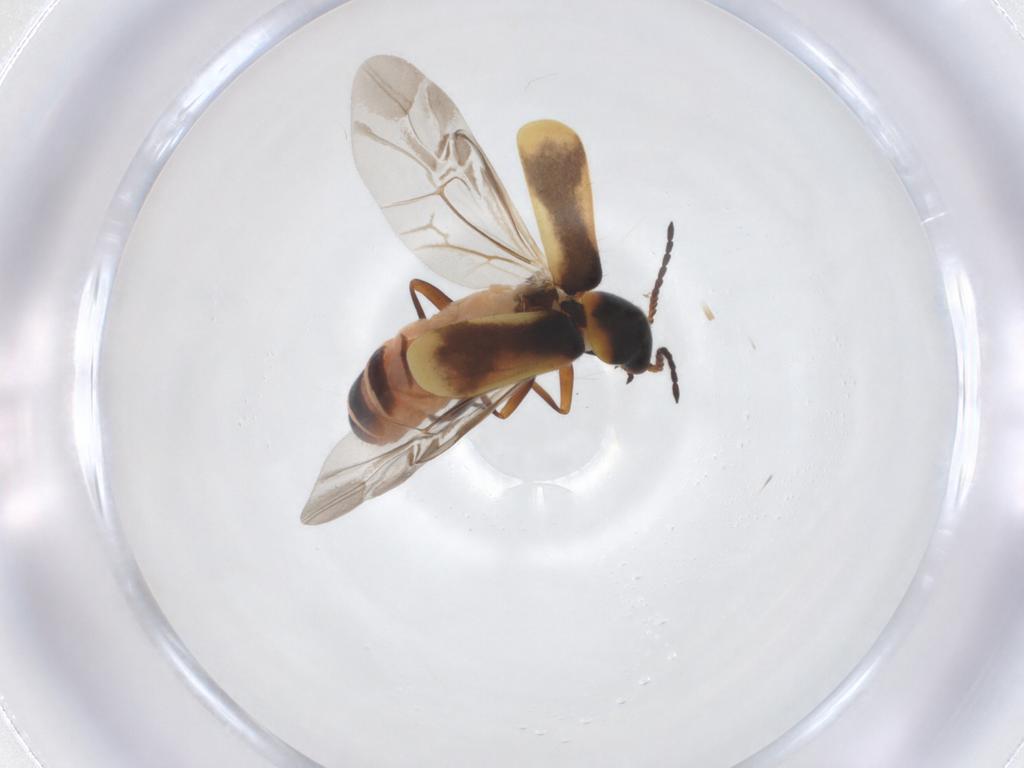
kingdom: Animalia
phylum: Arthropoda
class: Insecta
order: Coleoptera
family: Melyridae
